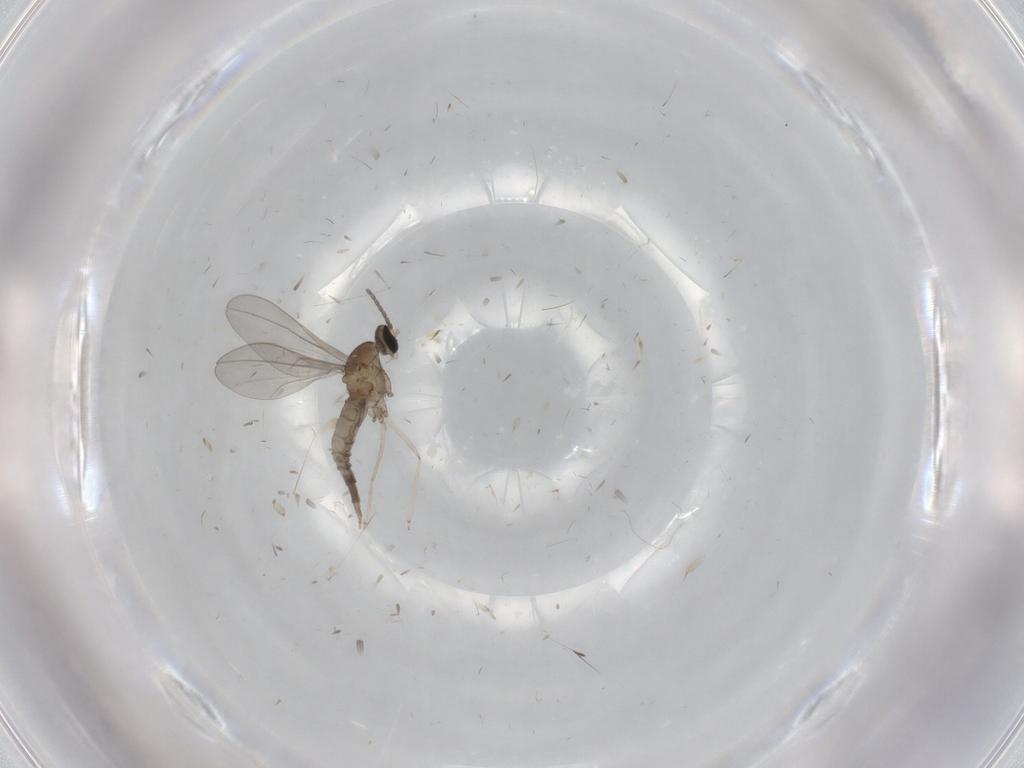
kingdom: Animalia
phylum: Arthropoda
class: Insecta
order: Diptera
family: Cecidomyiidae
